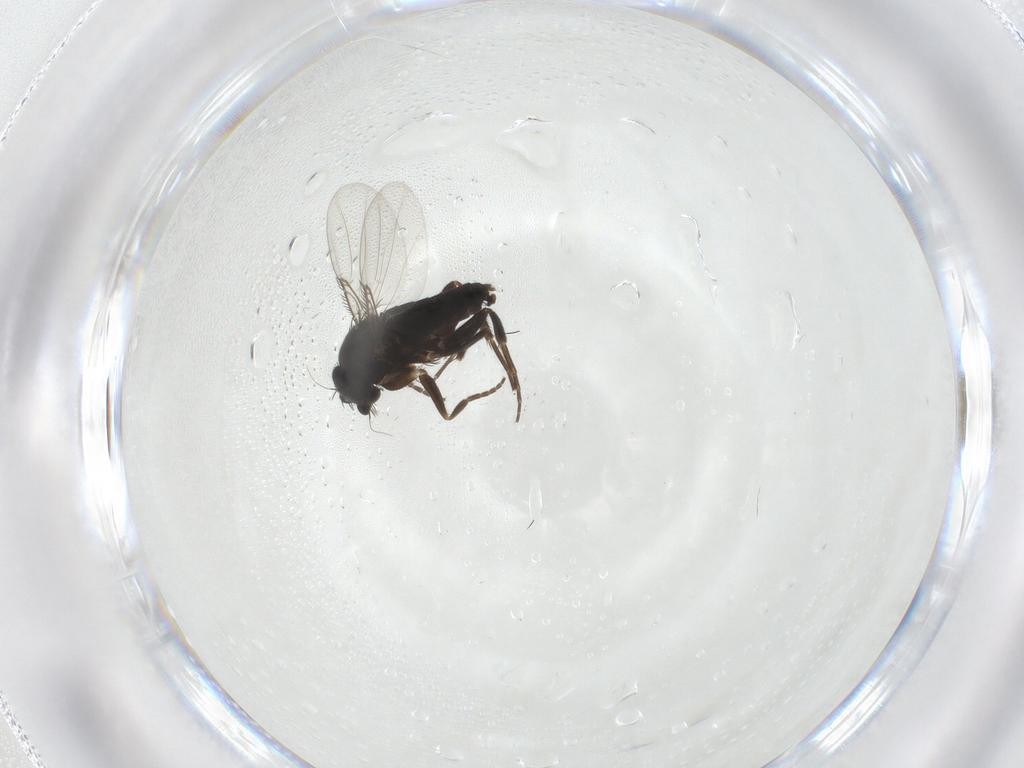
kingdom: Animalia
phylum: Arthropoda
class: Insecta
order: Diptera
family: Phoridae
